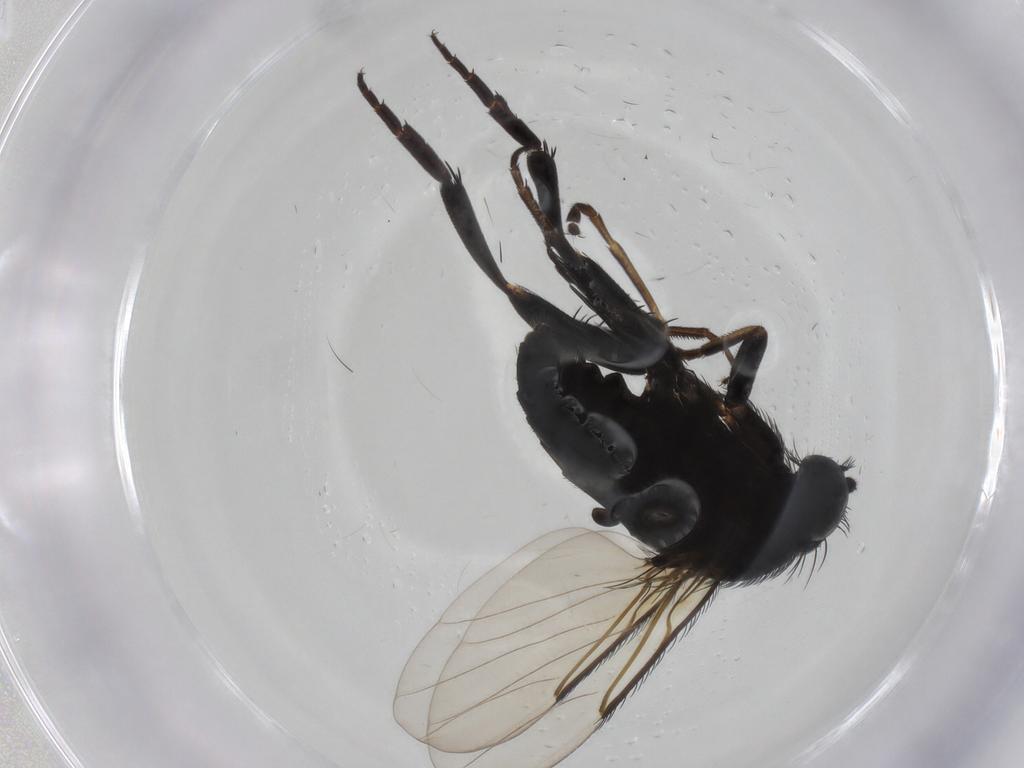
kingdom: Animalia
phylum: Arthropoda
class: Insecta
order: Diptera
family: Phoridae
